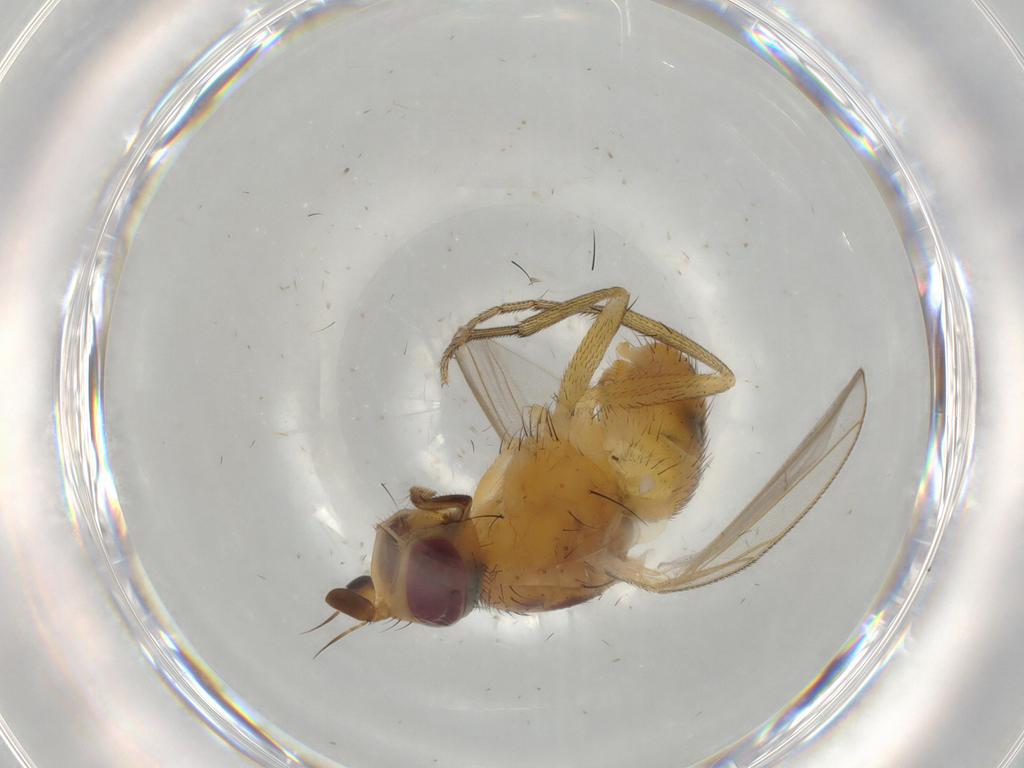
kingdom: Animalia
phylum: Arthropoda
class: Insecta
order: Diptera
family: Muscidae
